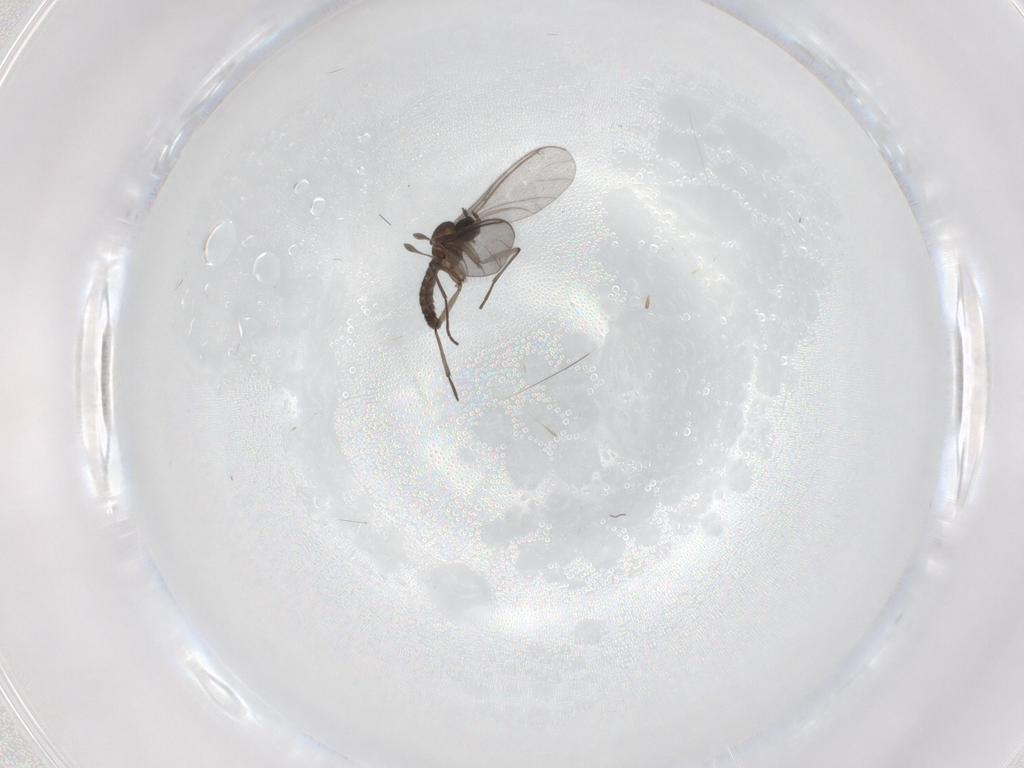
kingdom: Animalia
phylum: Arthropoda
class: Insecta
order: Diptera
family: Sciaridae
